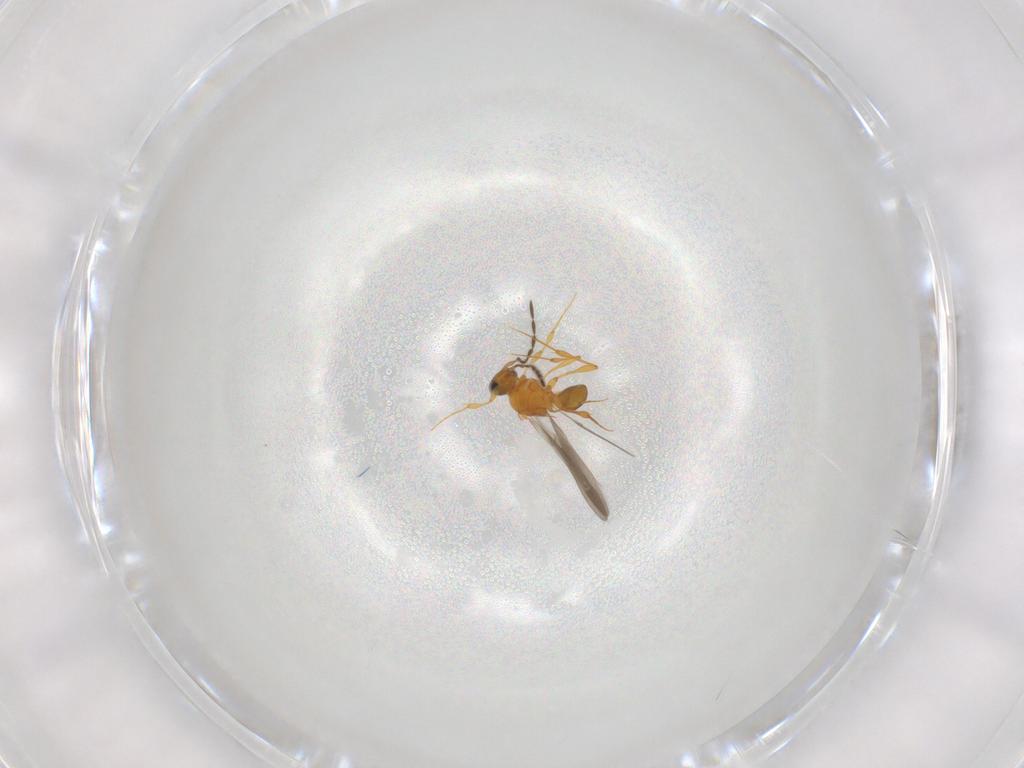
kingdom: Animalia
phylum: Arthropoda
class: Insecta
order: Hymenoptera
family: Platygastridae
